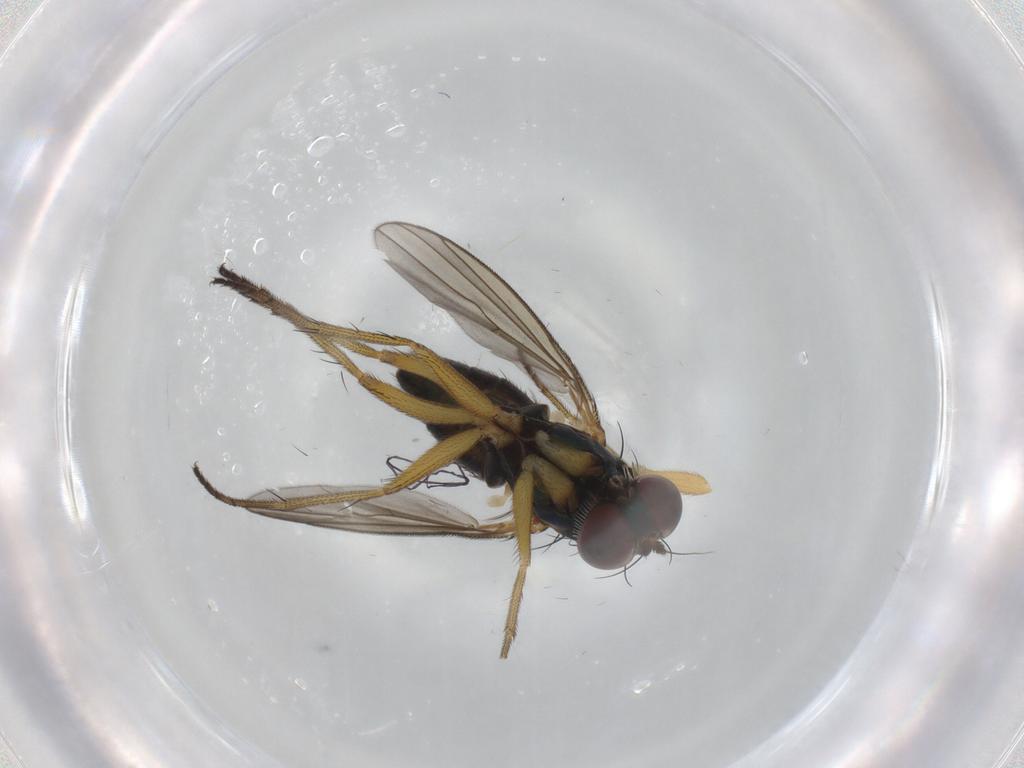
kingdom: Animalia
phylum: Arthropoda
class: Insecta
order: Diptera
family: Dolichopodidae
